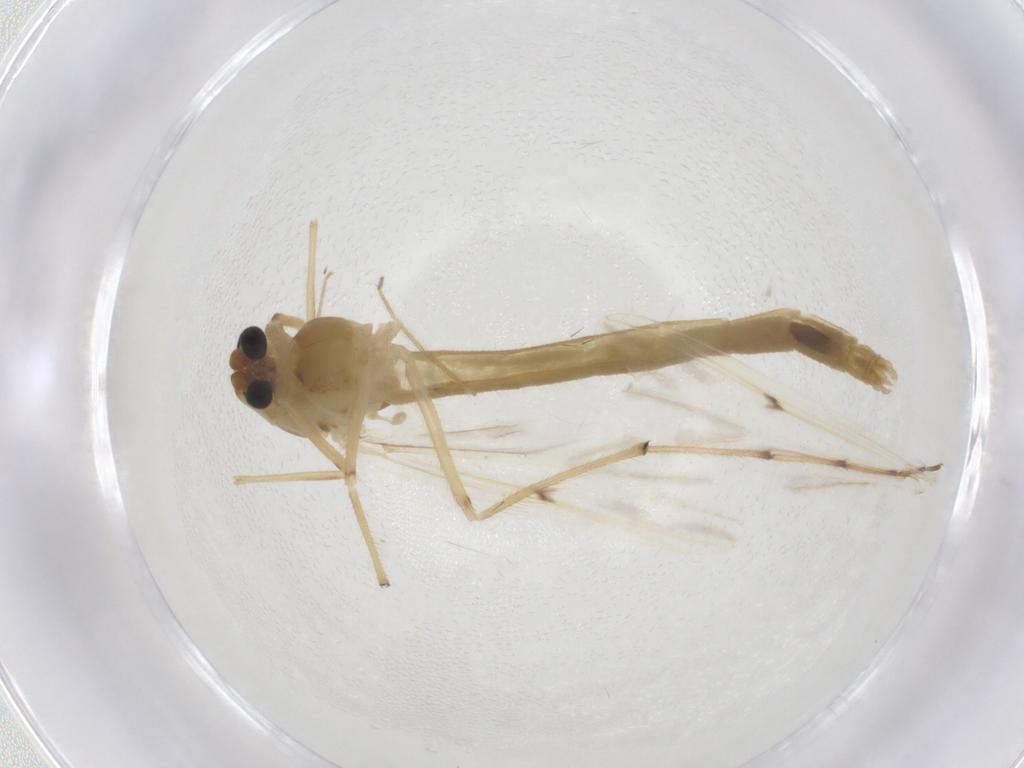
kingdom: Animalia
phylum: Arthropoda
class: Insecta
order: Diptera
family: Chironomidae
